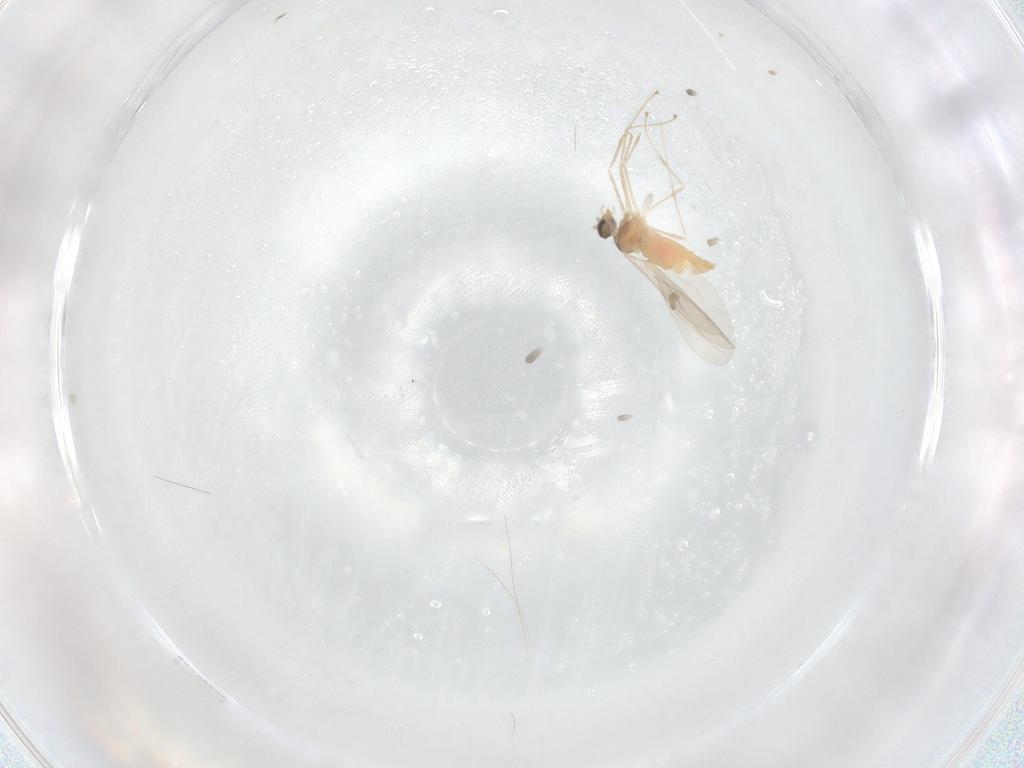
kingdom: Animalia
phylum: Arthropoda
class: Insecta
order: Diptera
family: Cecidomyiidae
